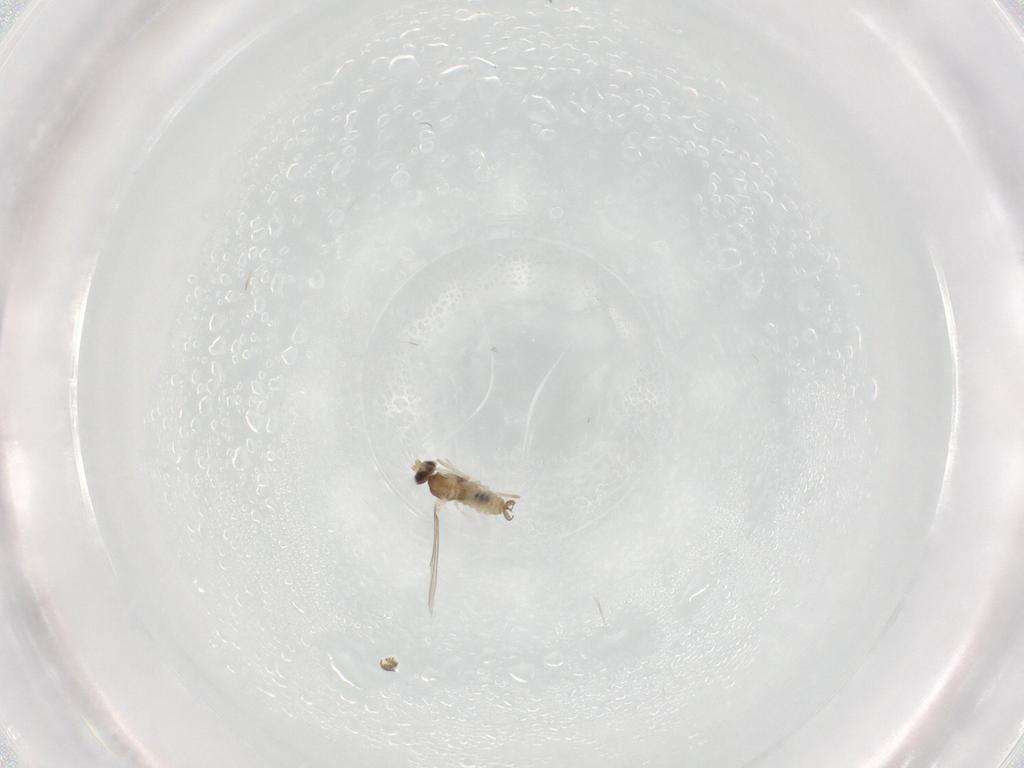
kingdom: Animalia
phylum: Arthropoda
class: Insecta
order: Diptera
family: Cecidomyiidae
